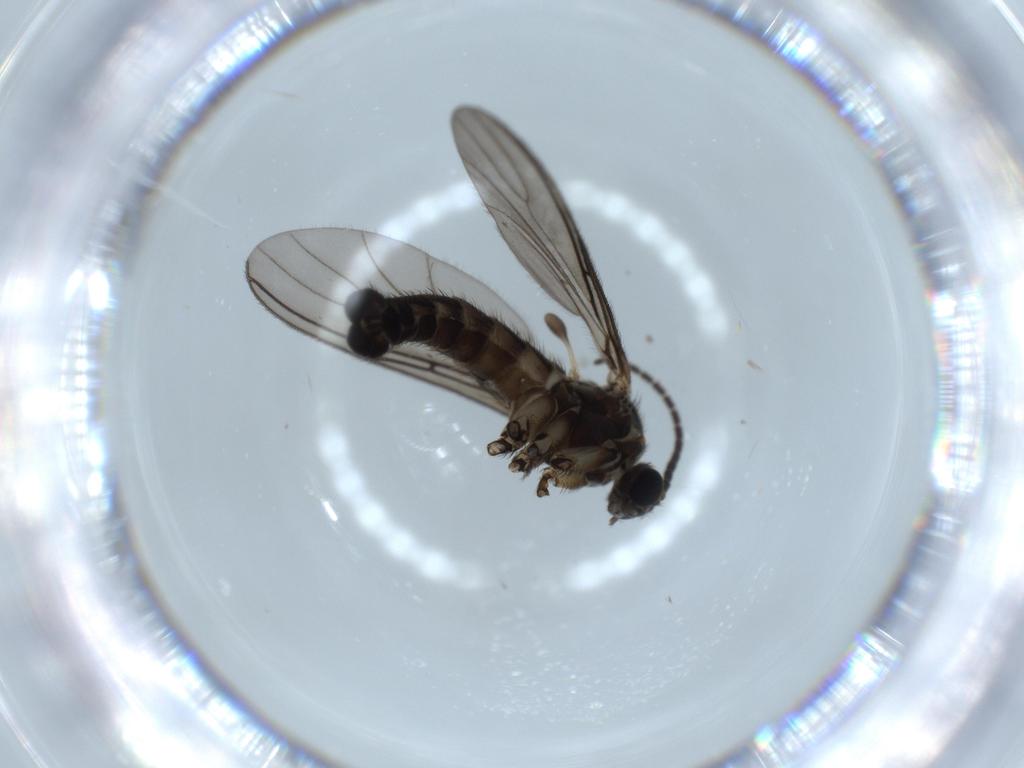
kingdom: Animalia
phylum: Arthropoda
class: Insecta
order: Diptera
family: Sciaridae
